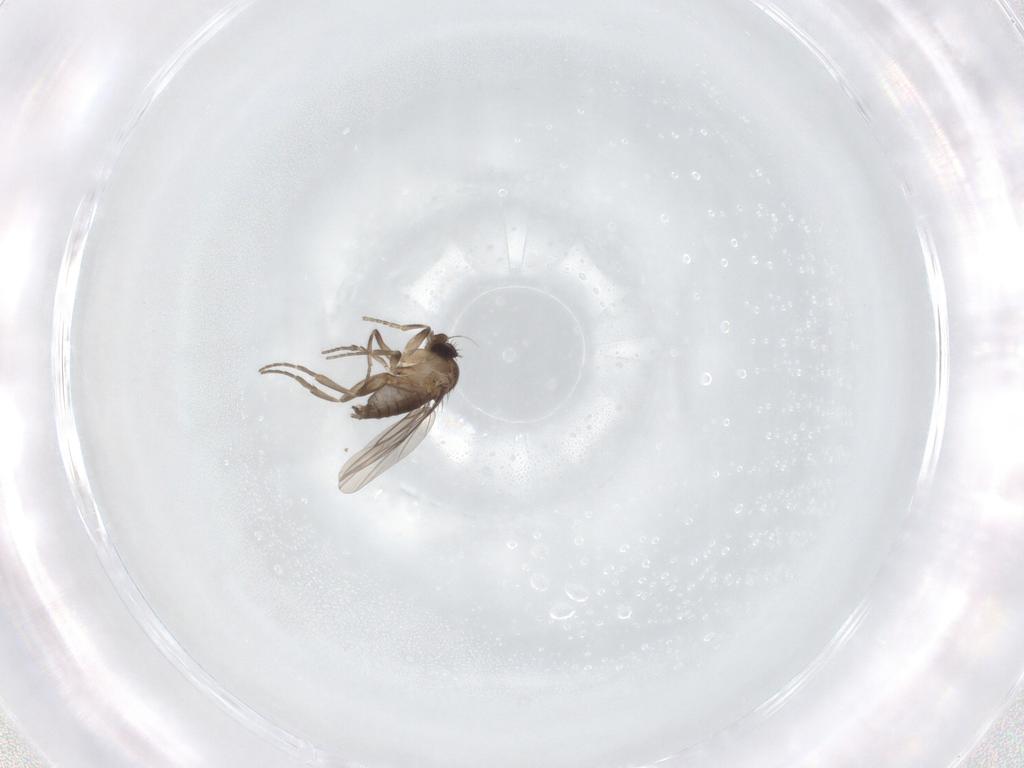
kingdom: Animalia
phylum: Arthropoda
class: Insecta
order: Diptera
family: Phoridae
